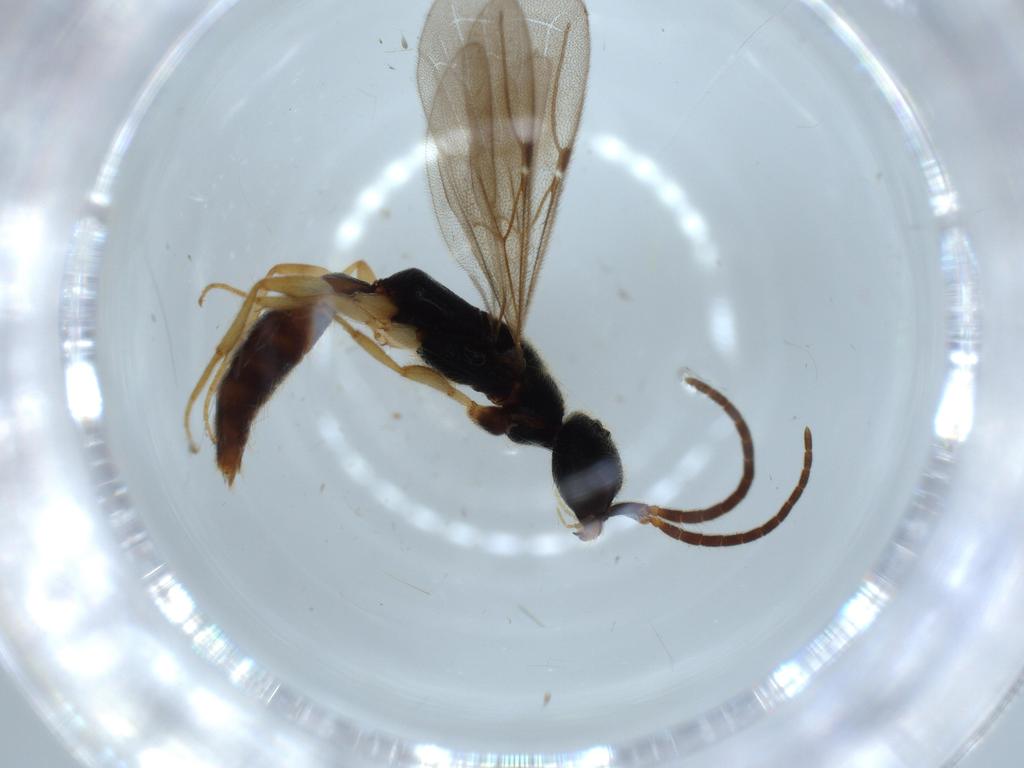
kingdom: Animalia
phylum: Arthropoda
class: Insecta
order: Hymenoptera
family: Bethylidae
